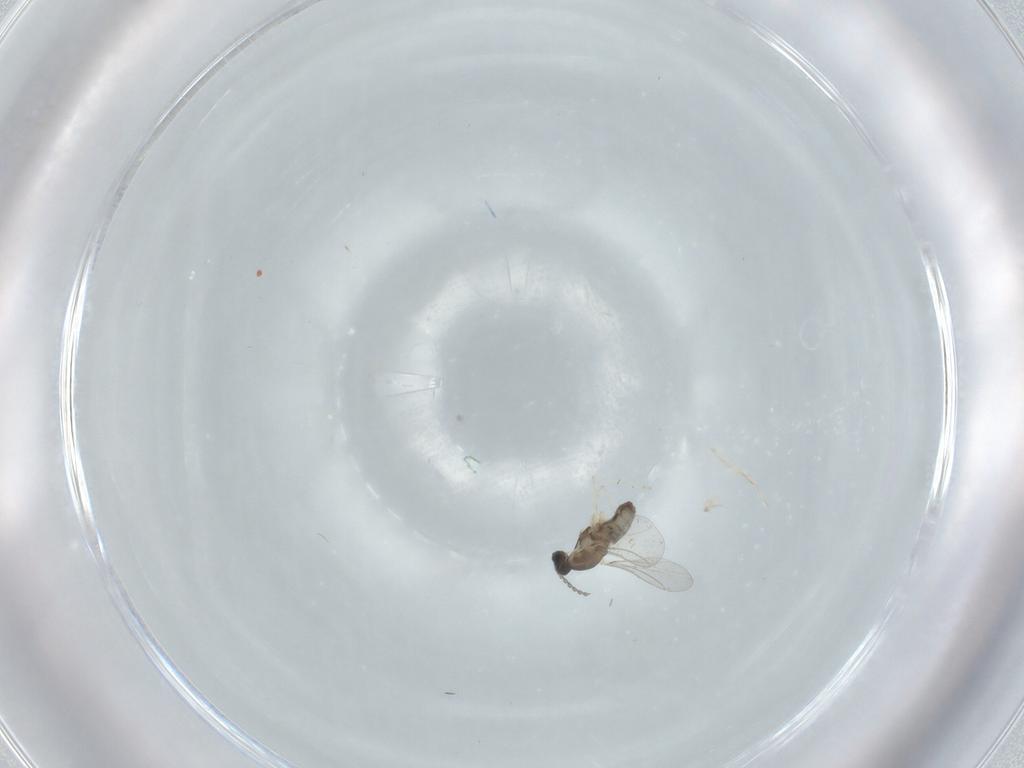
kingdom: Animalia
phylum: Arthropoda
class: Insecta
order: Diptera
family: Cecidomyiidae
